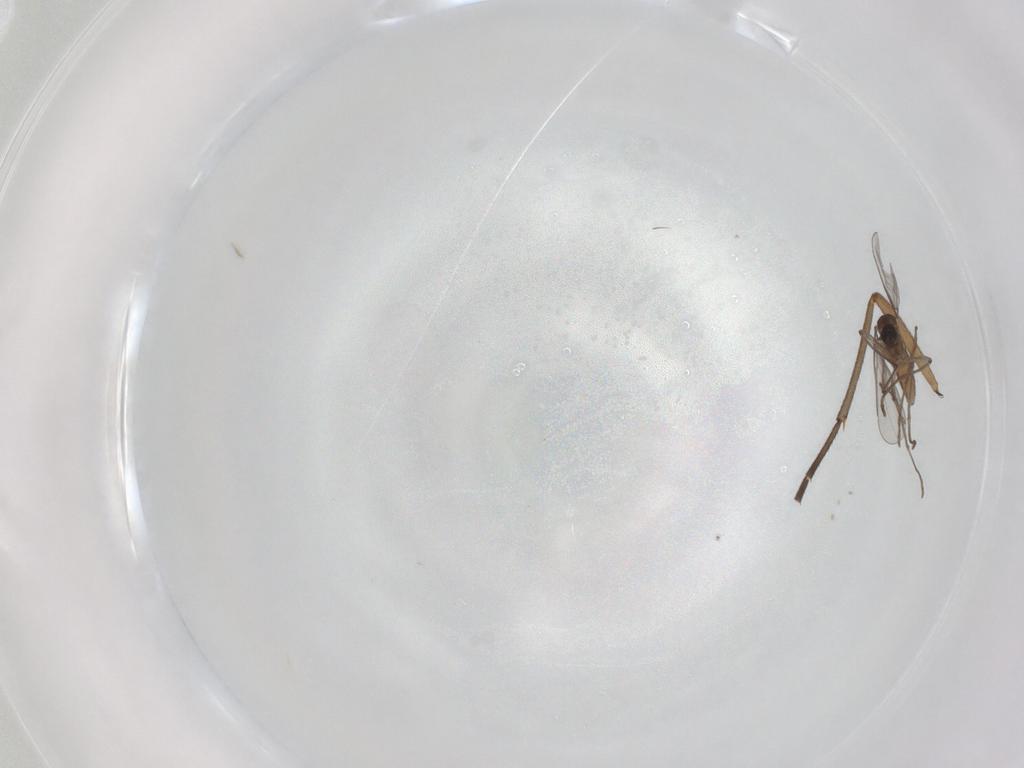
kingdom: Animalia
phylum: Arthropoda
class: Insecta
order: Diptera
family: Sciaridae
